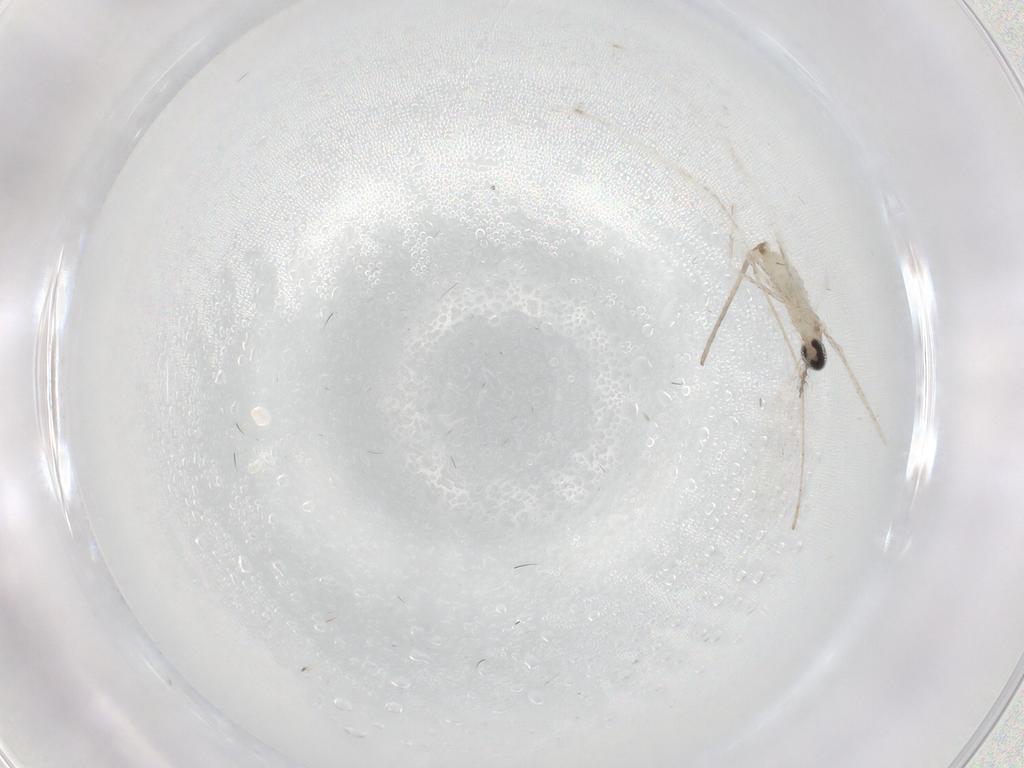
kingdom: Animalia
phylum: Arthropoda
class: Insecta
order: Diptera
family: Cecidomyiidae
